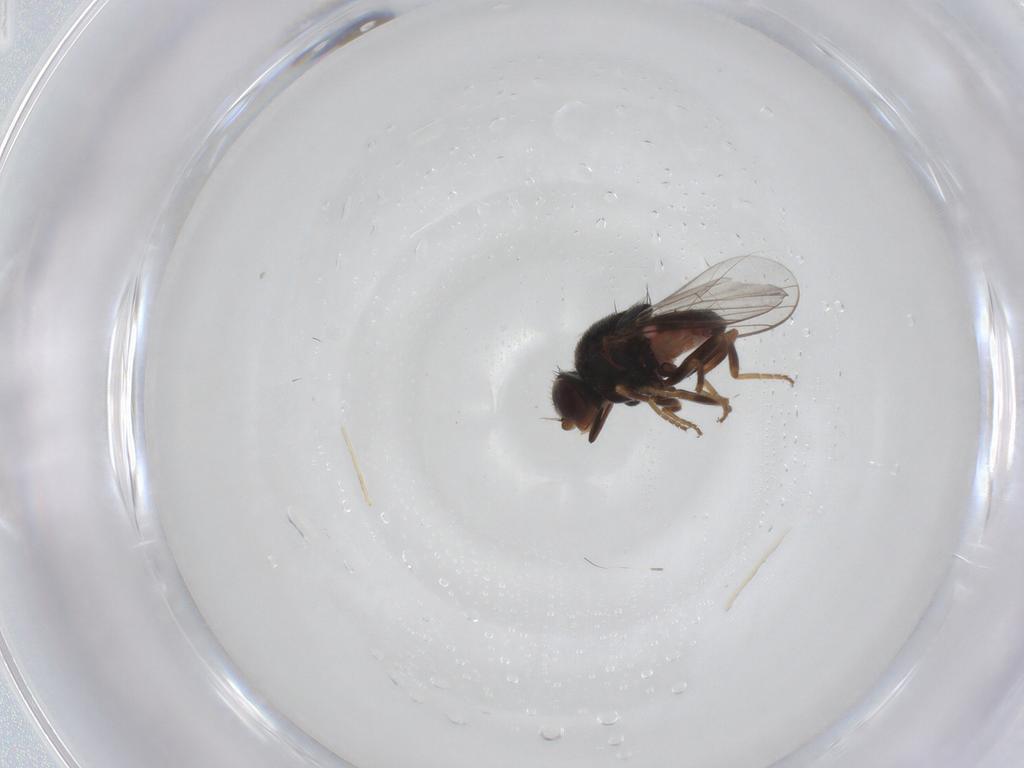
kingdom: Animalia
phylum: Arthropoda
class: Insecta
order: Diptera
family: Chloropidae
